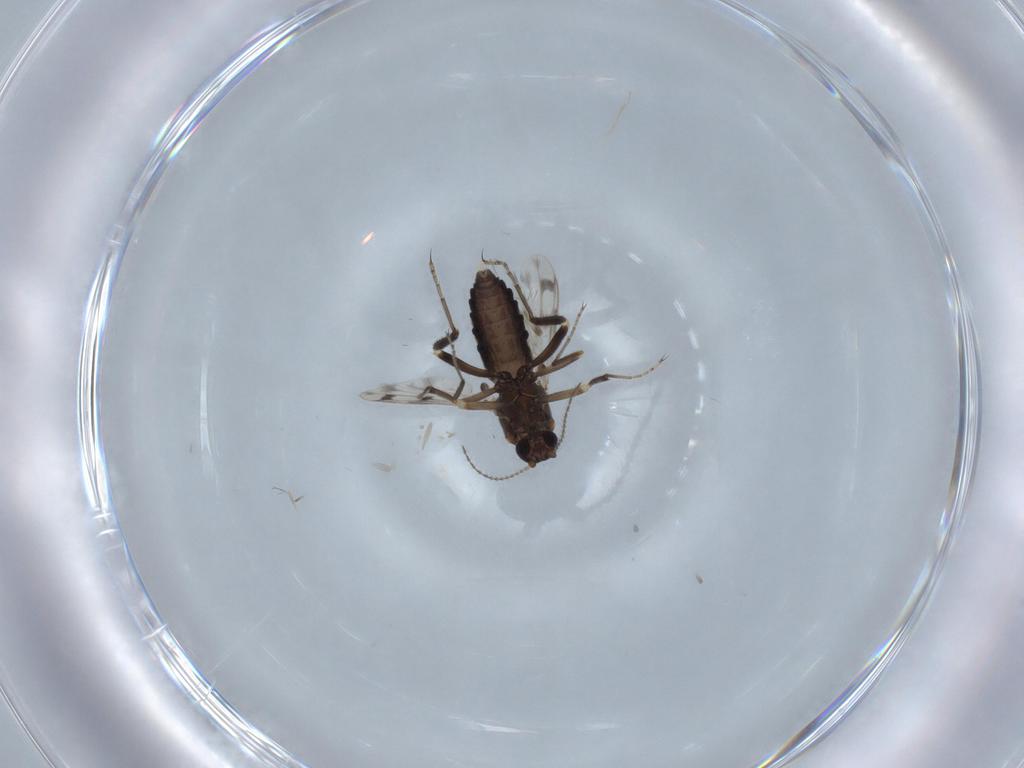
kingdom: Animalia
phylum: Arthropoda
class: Insecta
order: Diptera
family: Ceratopogonidae
